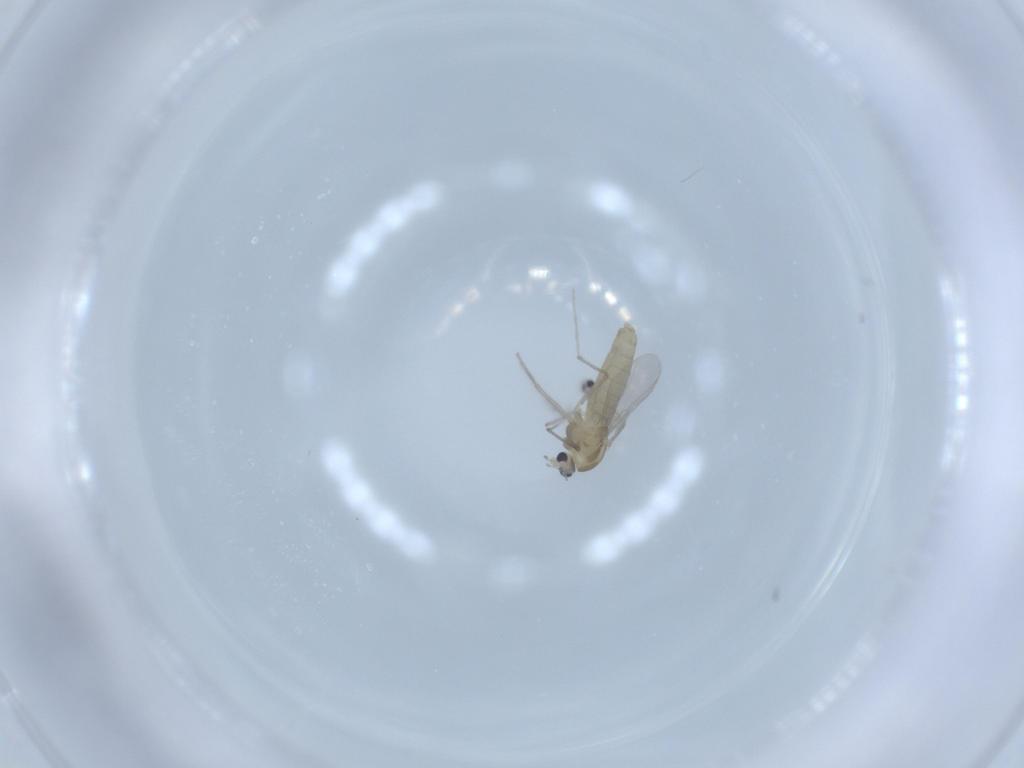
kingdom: Animalia
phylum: Arthropoda
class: Insecta
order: Diptera
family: Chironomidae
